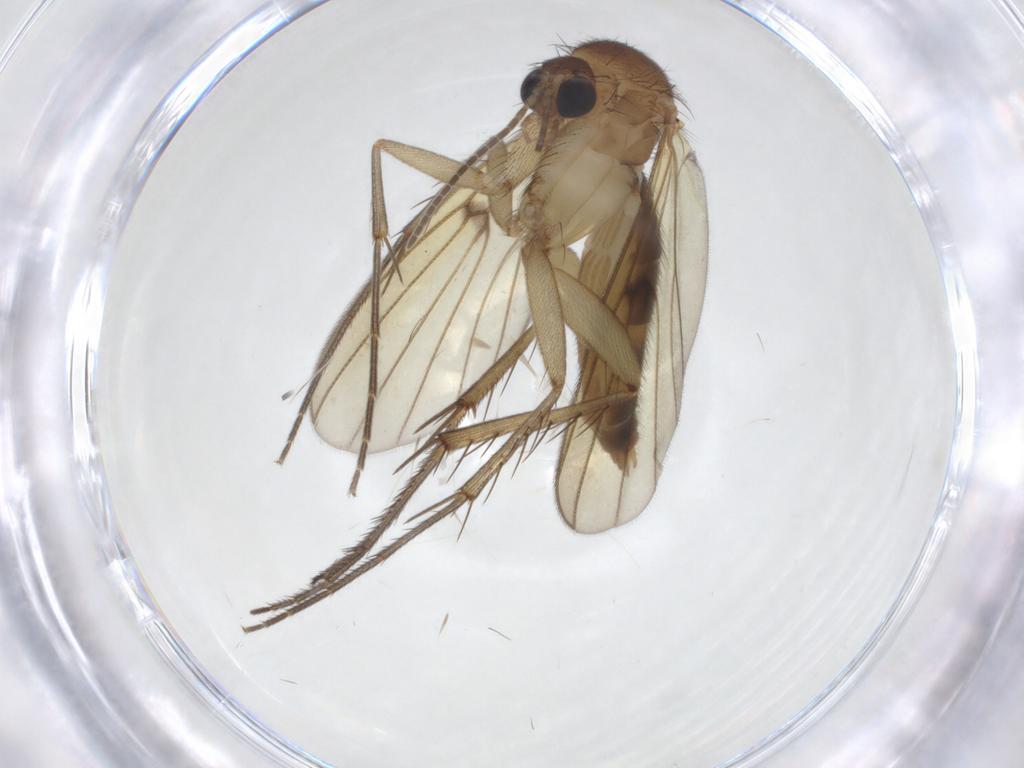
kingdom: Animalia
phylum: Arthropoda
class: Insecta
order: Diptera
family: Mycetophilidae
